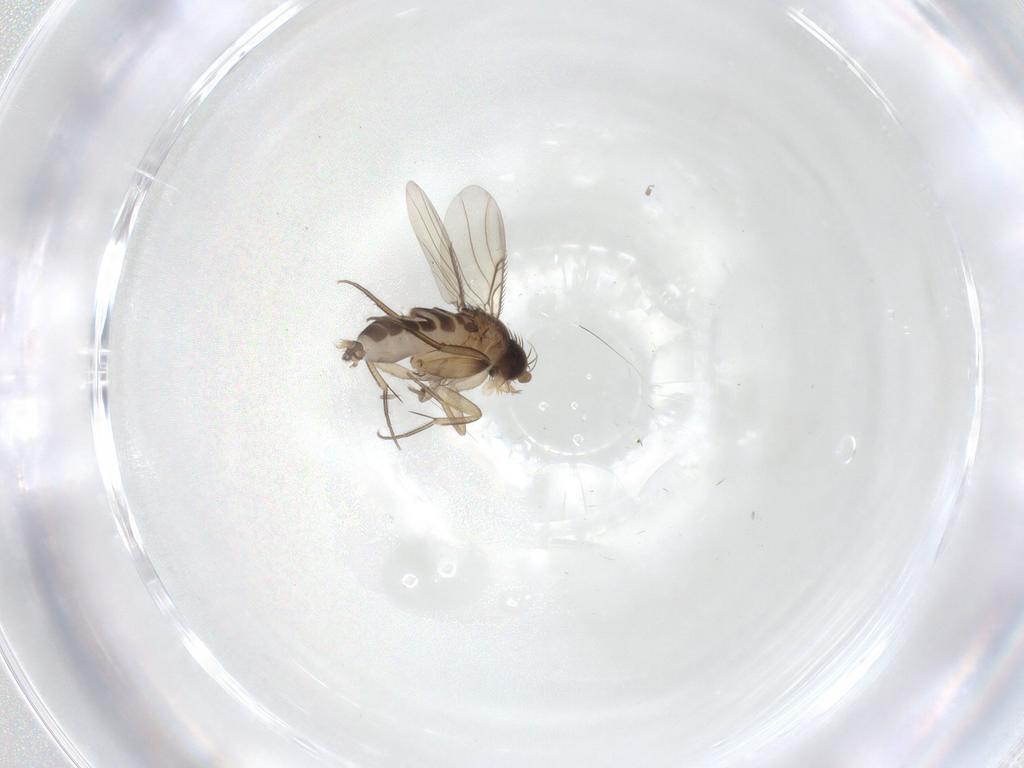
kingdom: Animalia
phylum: Arthropoda
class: Insecta
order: Diptera
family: Phoridae
